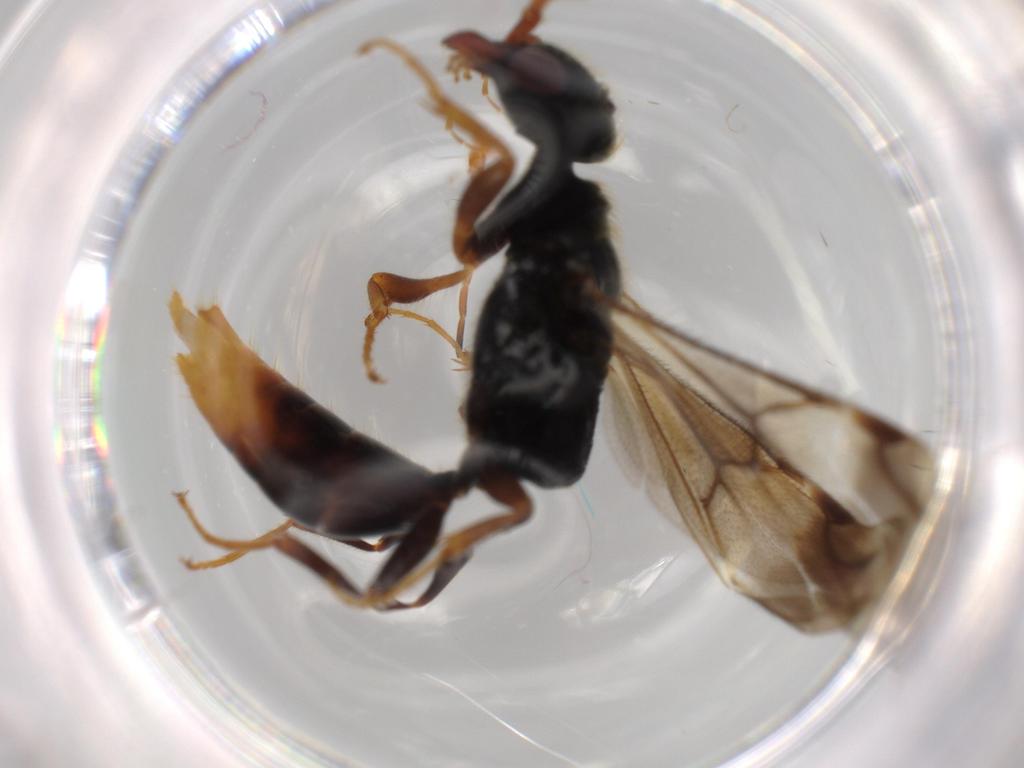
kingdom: Animalia
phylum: Arthropoda
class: Insecta
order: Hymenoptera
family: Bethylidae
